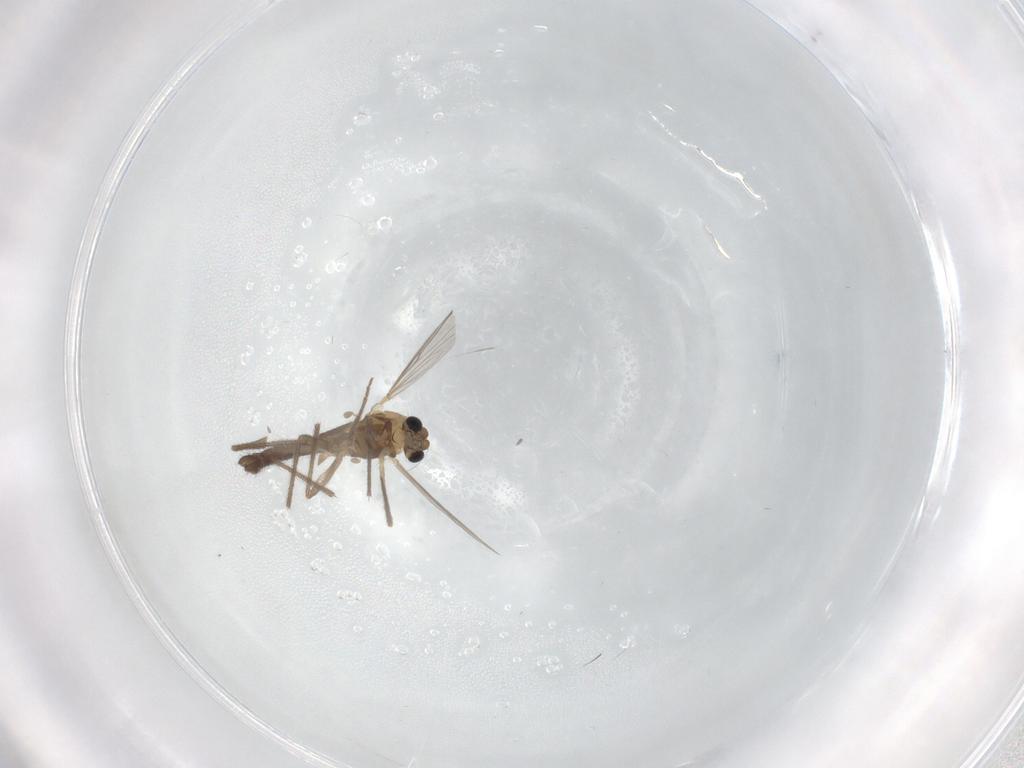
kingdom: Animalia
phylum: Arthropoda
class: Insecta
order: Diptera
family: Chironomidae
